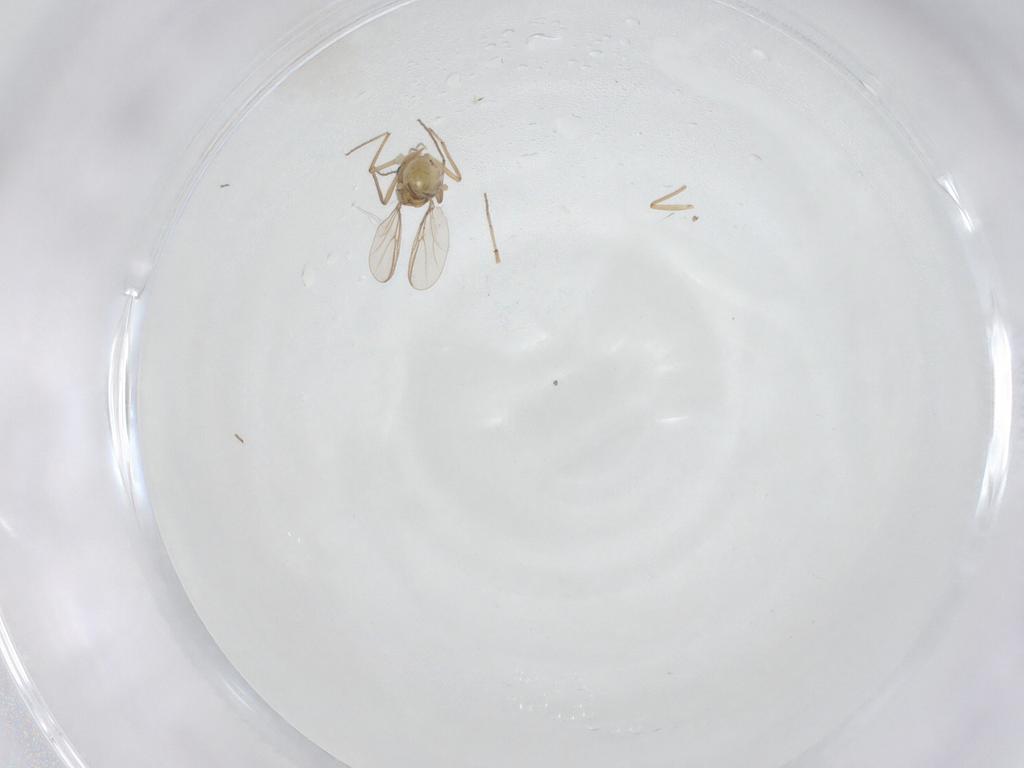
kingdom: Animalia
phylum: Arthropoda
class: Insecta
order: Diptera
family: Chironomidae
